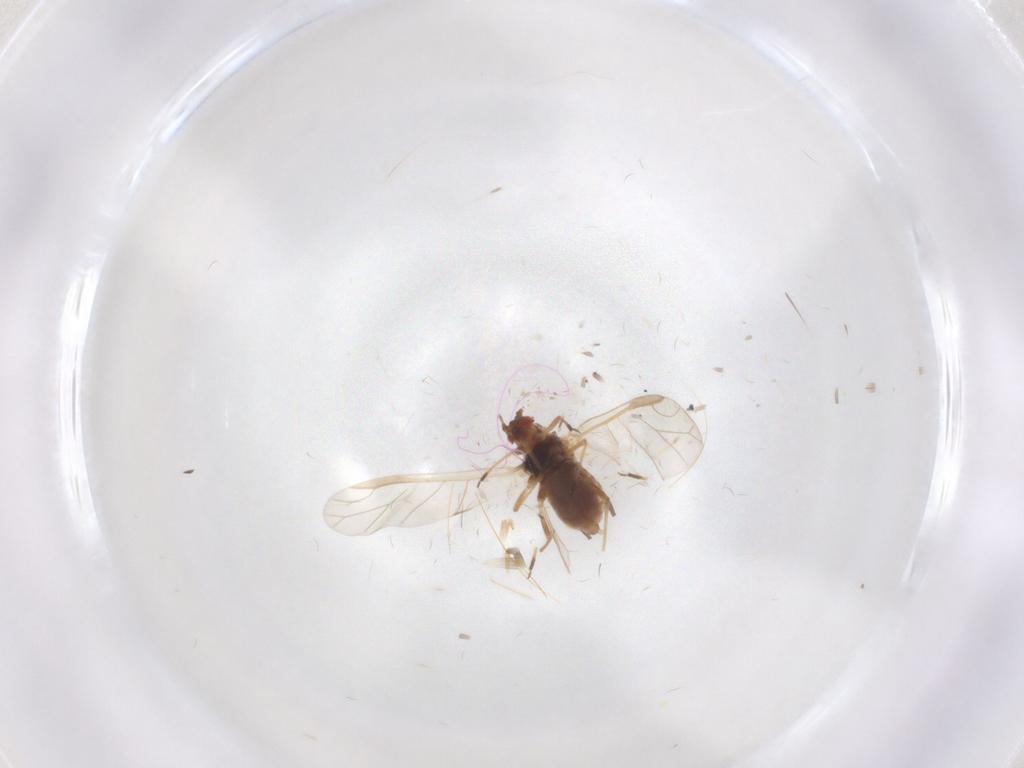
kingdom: Animalia
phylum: Arthropoda
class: Insecta
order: Hemiptera
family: Aphididae
